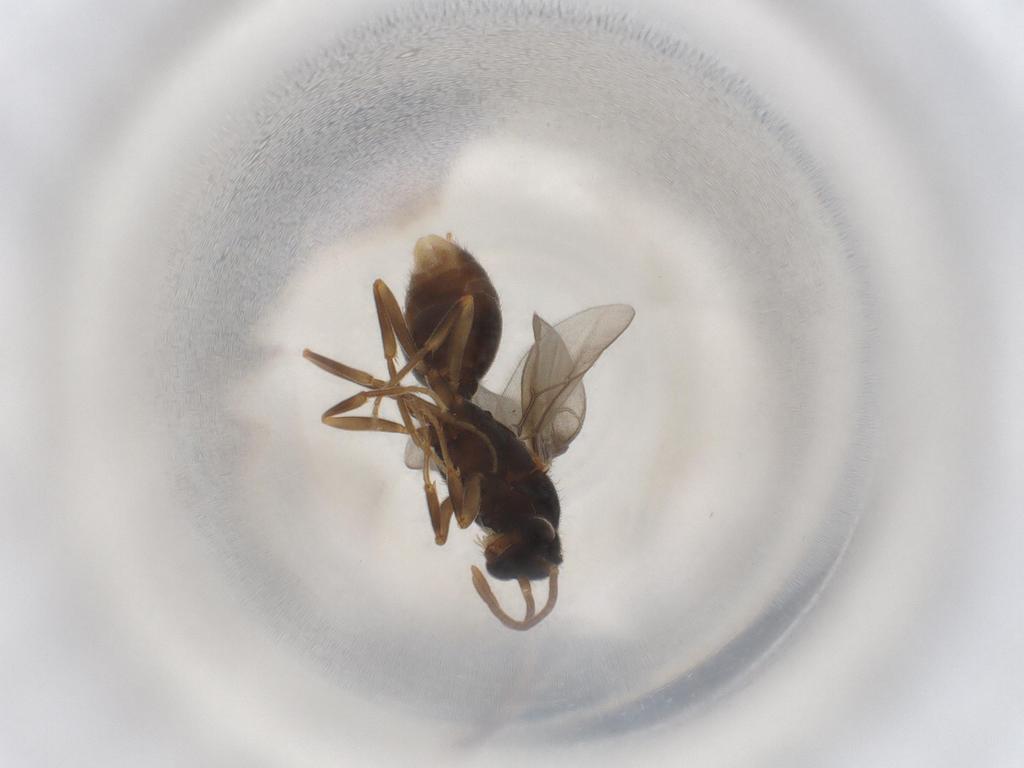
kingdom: Animalia
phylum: Arthropoda
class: Insecta
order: Hymenoptera
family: Formicidae
